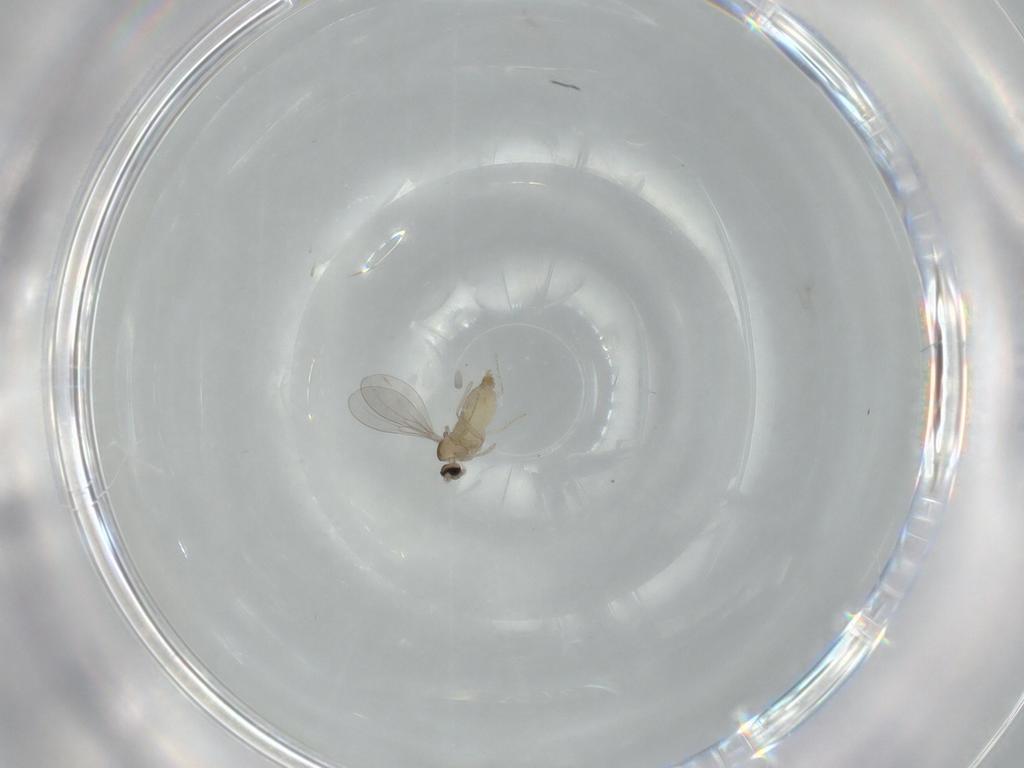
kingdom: Animalia
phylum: Arthropoda
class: Insecta
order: Diptera
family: Cecidomyiidae
